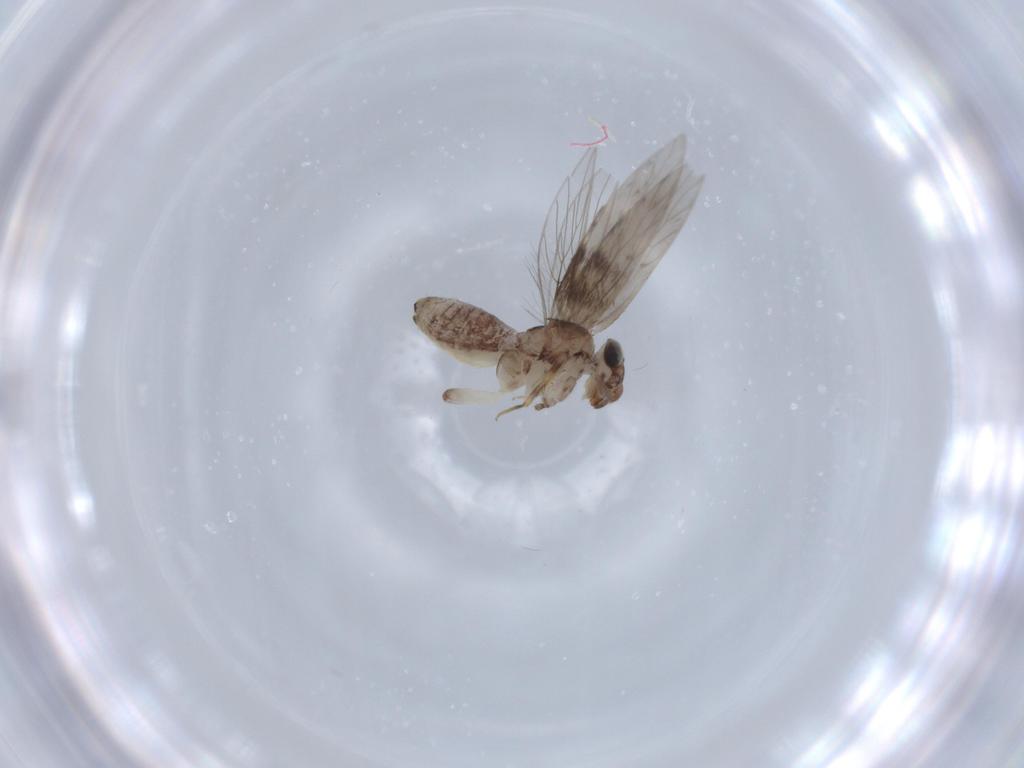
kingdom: Animalia
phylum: Arthropoda
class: Insecta
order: Psocodea
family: Lepidopsocidae
